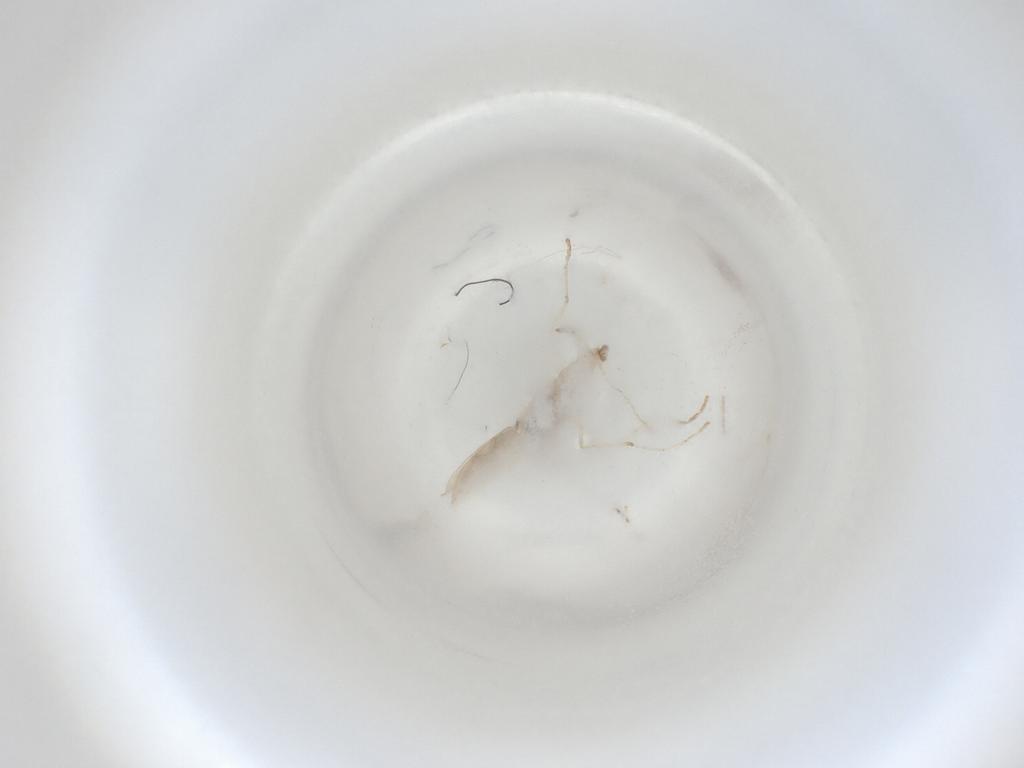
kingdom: Animalia
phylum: Arthropoda
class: Insecta
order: Diptera
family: Cecidomyiidae
